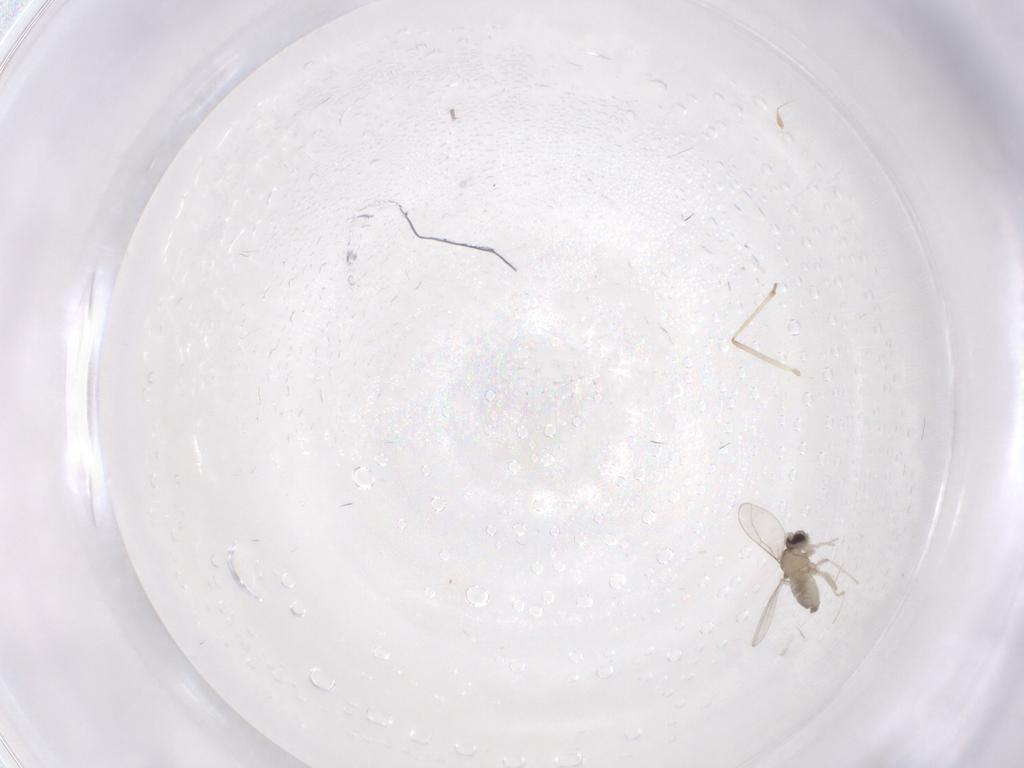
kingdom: Animalia
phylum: Arthropoda
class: Insecta
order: Diptera
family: Cecidomyiidae
